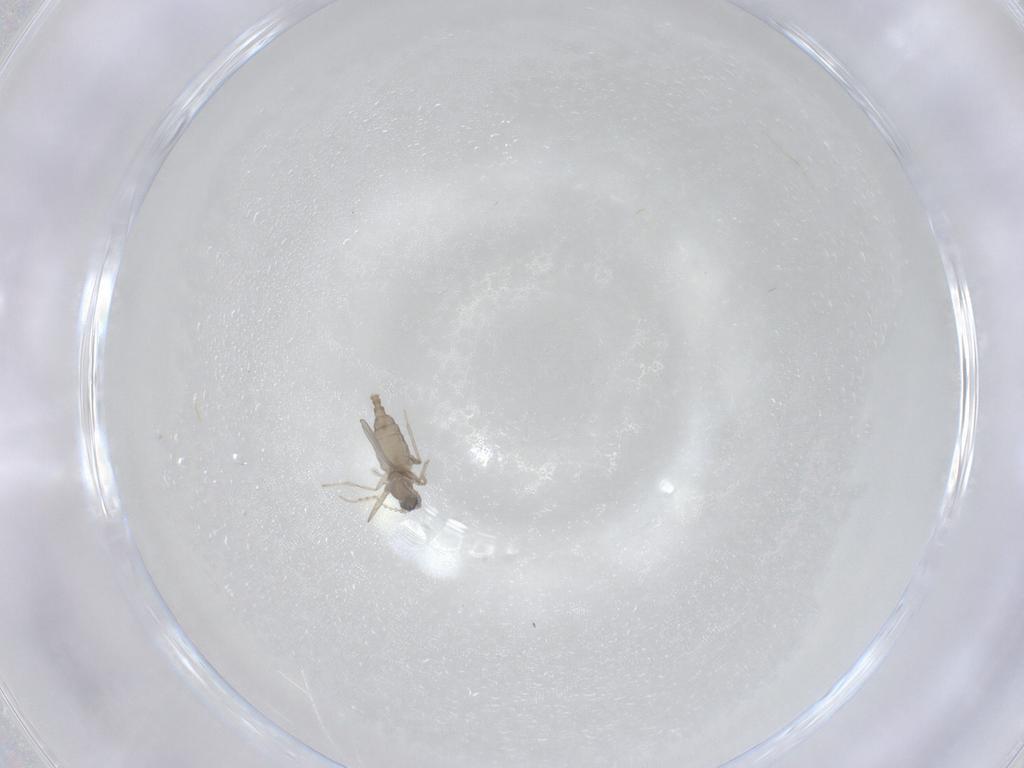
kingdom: Animalia
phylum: Arthropoda
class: Insecta
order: Diptera
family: Cecidomyiidae
